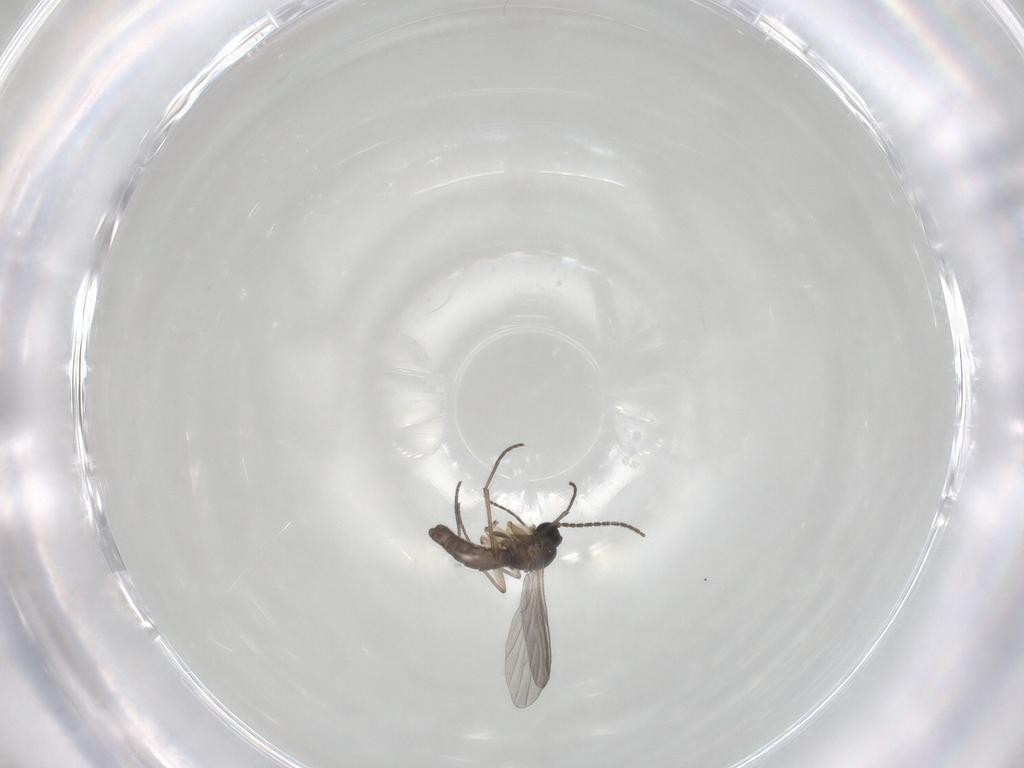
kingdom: Animalia
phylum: Arthropoda
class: Insecta
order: Diptera
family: Sciaridae
